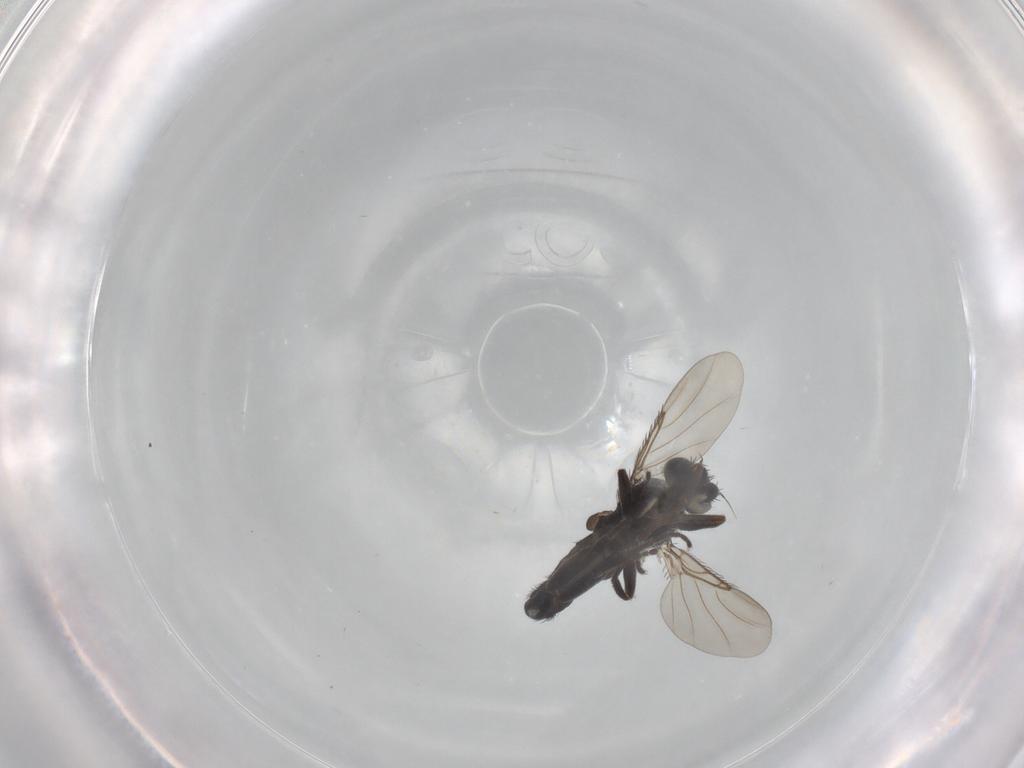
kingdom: Animalia
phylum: Arthropoda
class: Insecta
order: Diptera
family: Phoridae
